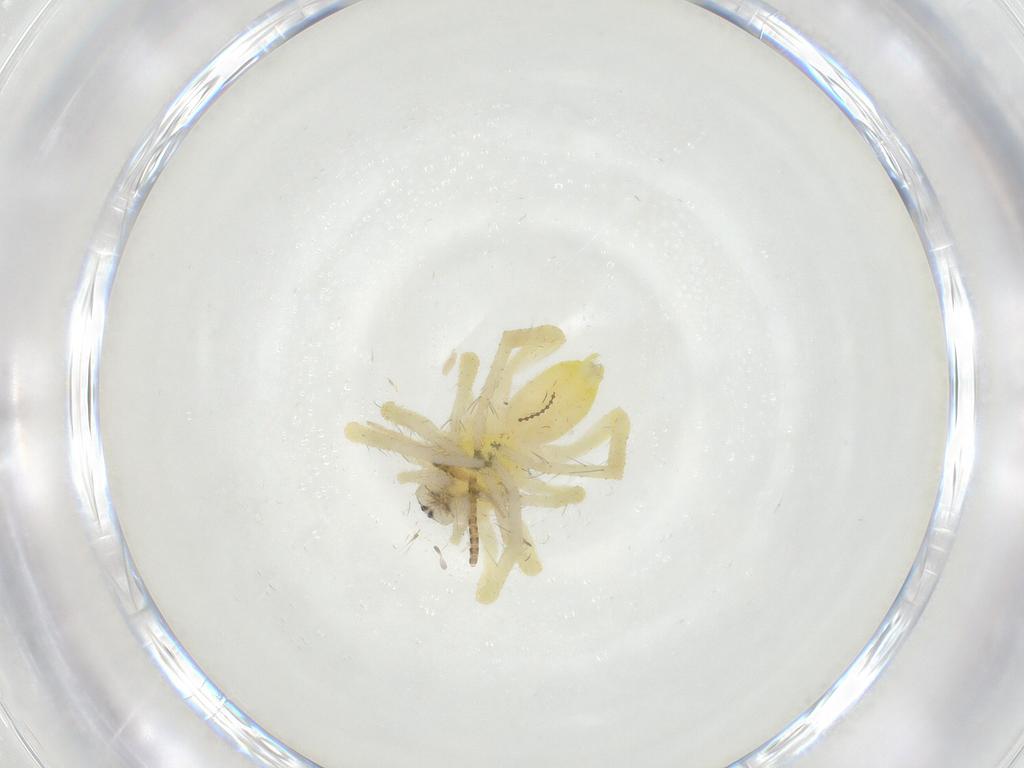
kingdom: Animalia
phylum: Arthropoda
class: Arachnida
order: Araneae
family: Anyphaenidae
